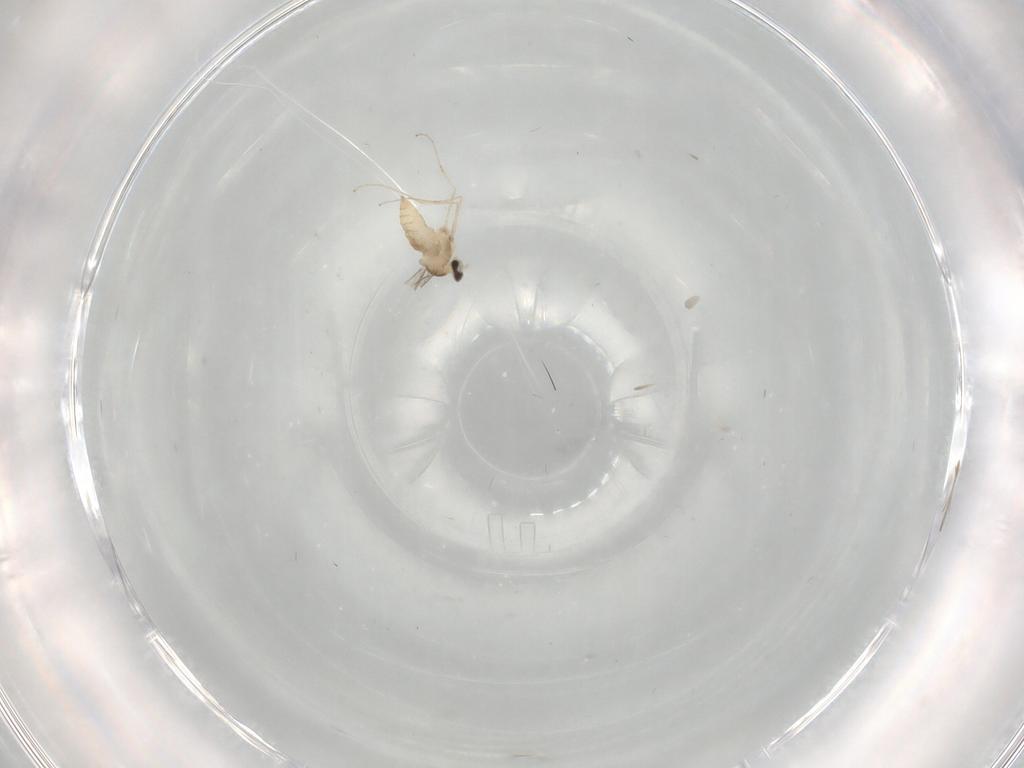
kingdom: Animalia
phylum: Arthropoda
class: Insecta
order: Diptera
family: Cecidomyiidae
